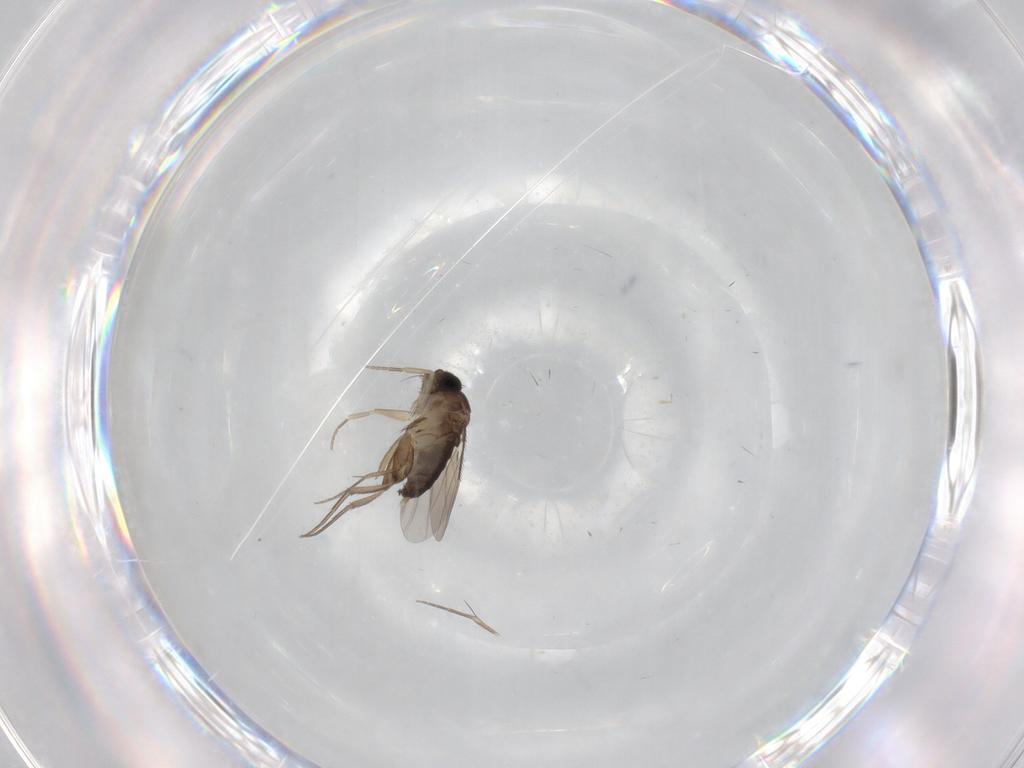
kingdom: Animalia
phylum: Arthropoda
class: Insecta
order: Diptera
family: Phoridae
